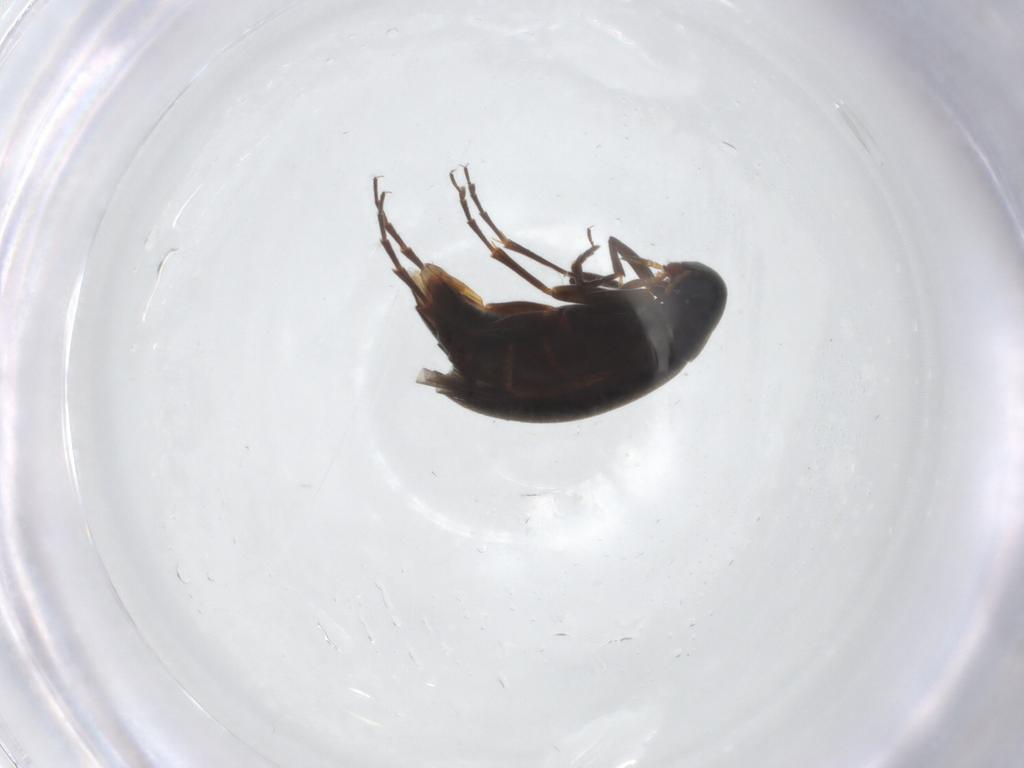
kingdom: Animalia
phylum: Arthropoda
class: Insecta
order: Coleoptera
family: Scraptiidae
